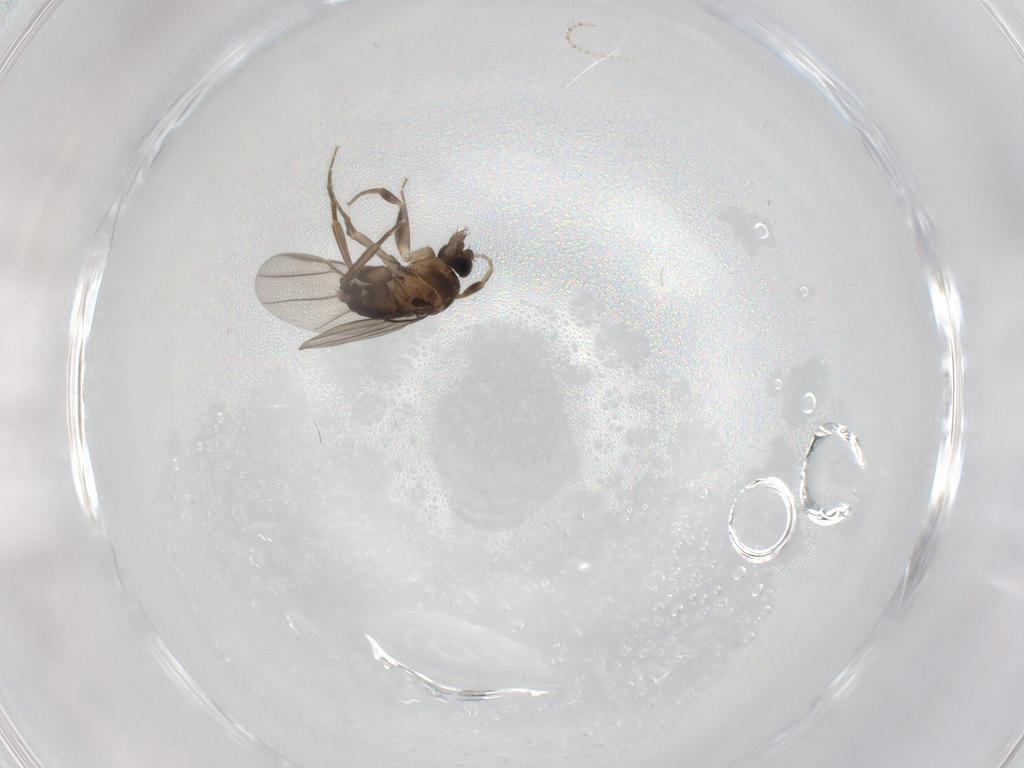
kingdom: Animalia
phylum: Arthropoda
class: Insecta
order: Diptera
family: Cecidomyiidae
